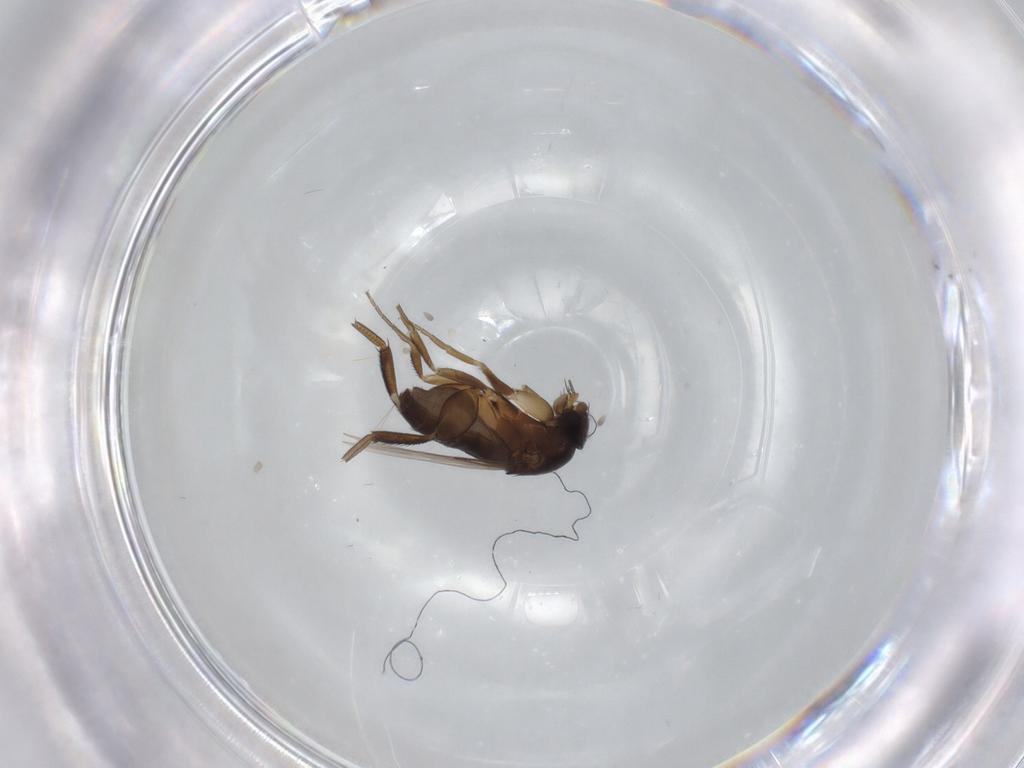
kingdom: Animalia
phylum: Arthropoda
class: Insecta
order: Diptera
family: Phoridae
